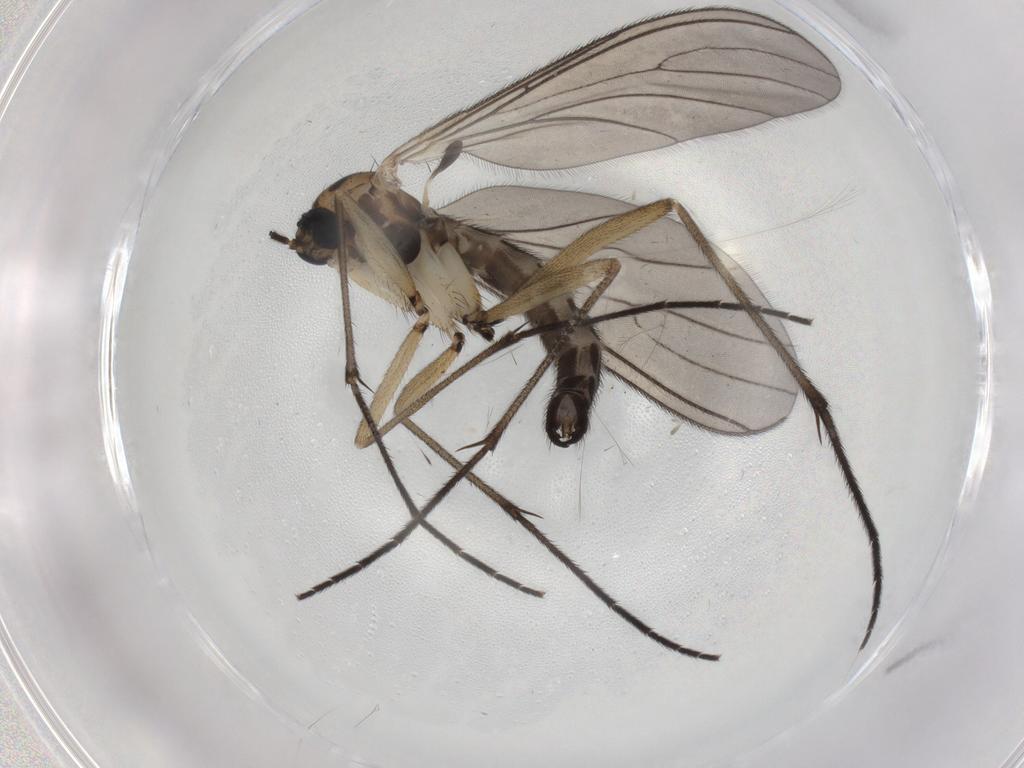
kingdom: Animalia
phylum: Arthropoda
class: Insecta
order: Diptera
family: Sciaridae
